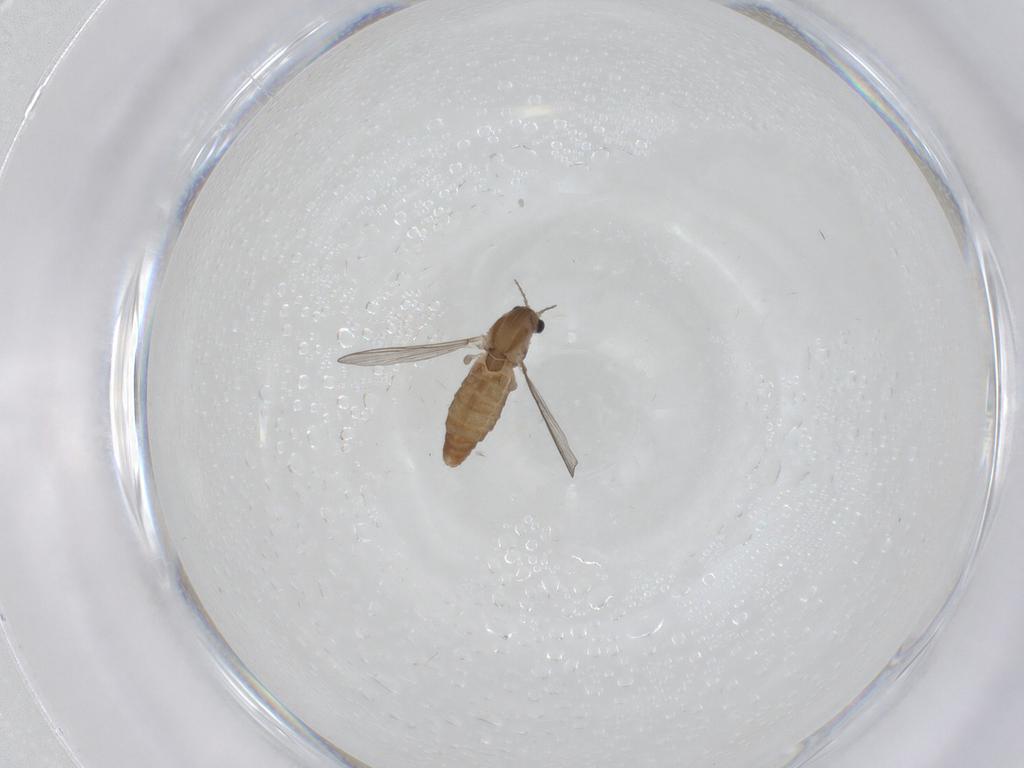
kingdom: Animalia
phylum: Arthropoda
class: Insecta
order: Diptera
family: Chironomidae
